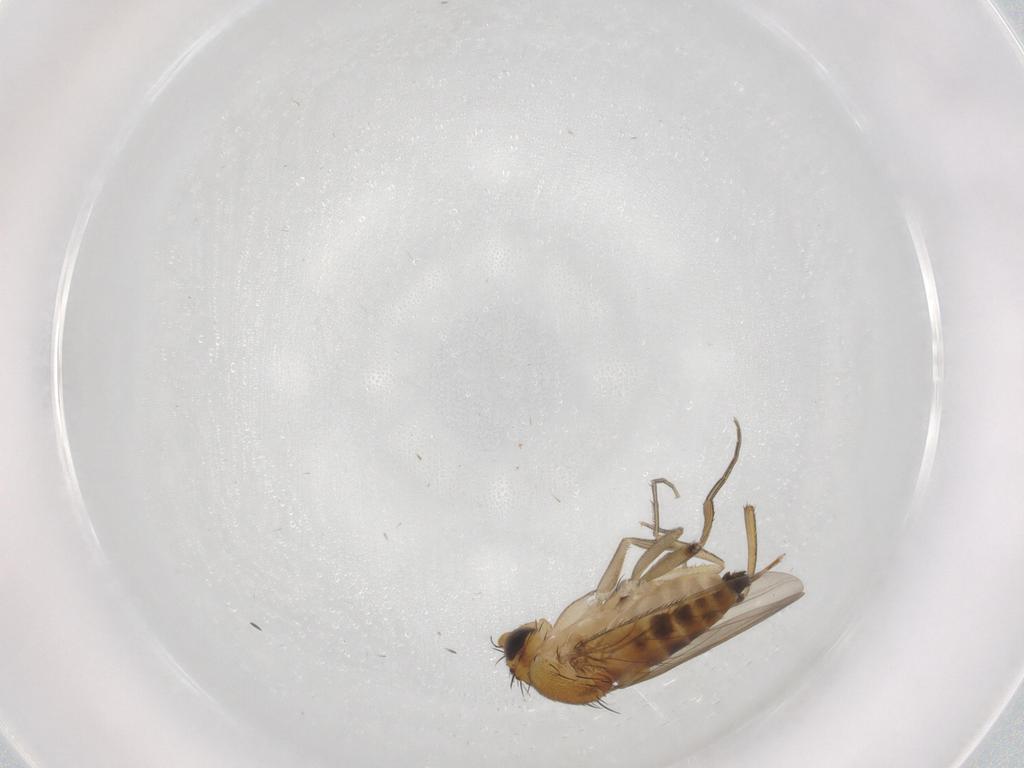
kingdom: Animalia
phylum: Arthropoda
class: Insecta
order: Diptera
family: Phoridae
